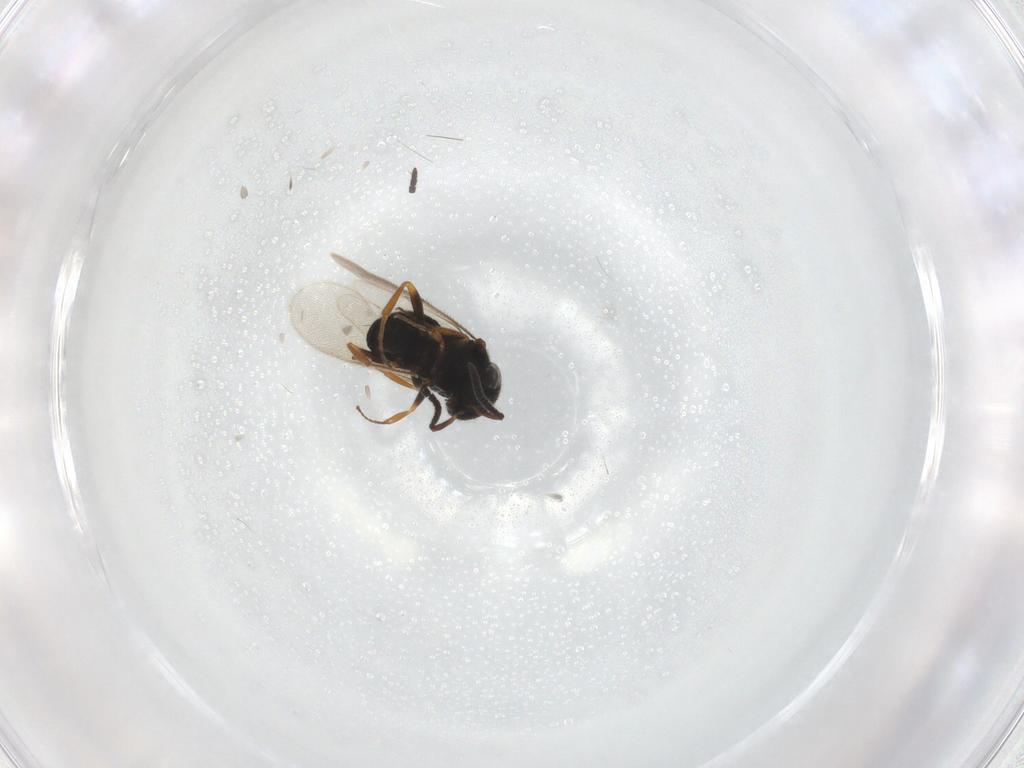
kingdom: Animalia
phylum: Arthropoda
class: Insecta
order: Hymenoptera
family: Scelionidae
